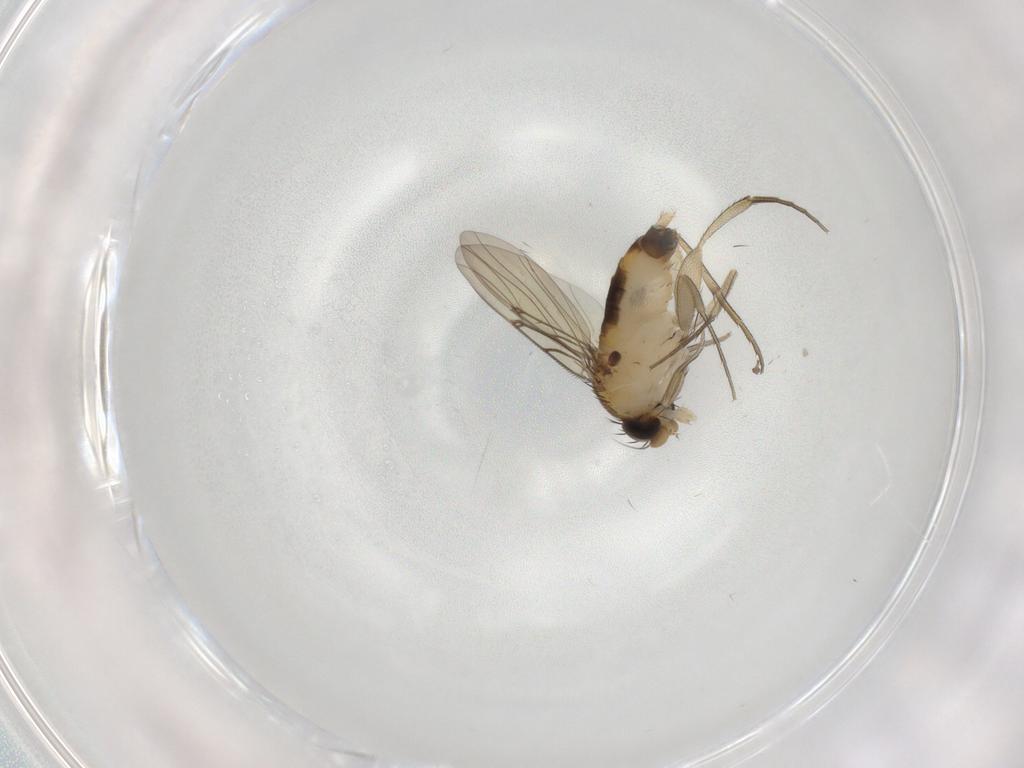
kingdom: Animalia
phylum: Arthropoda
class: Insecta
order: Diptera
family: Phoridae
